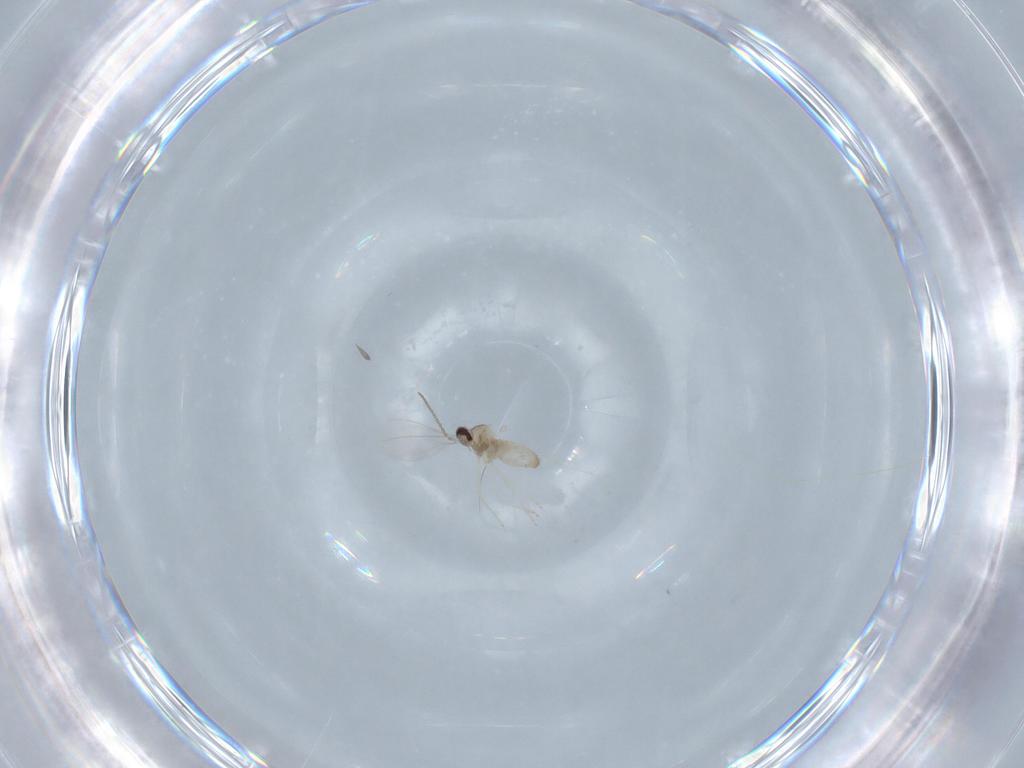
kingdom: Animalia
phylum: Arthropoda
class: Insecta
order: Diptera
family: Cecidomyiidae
